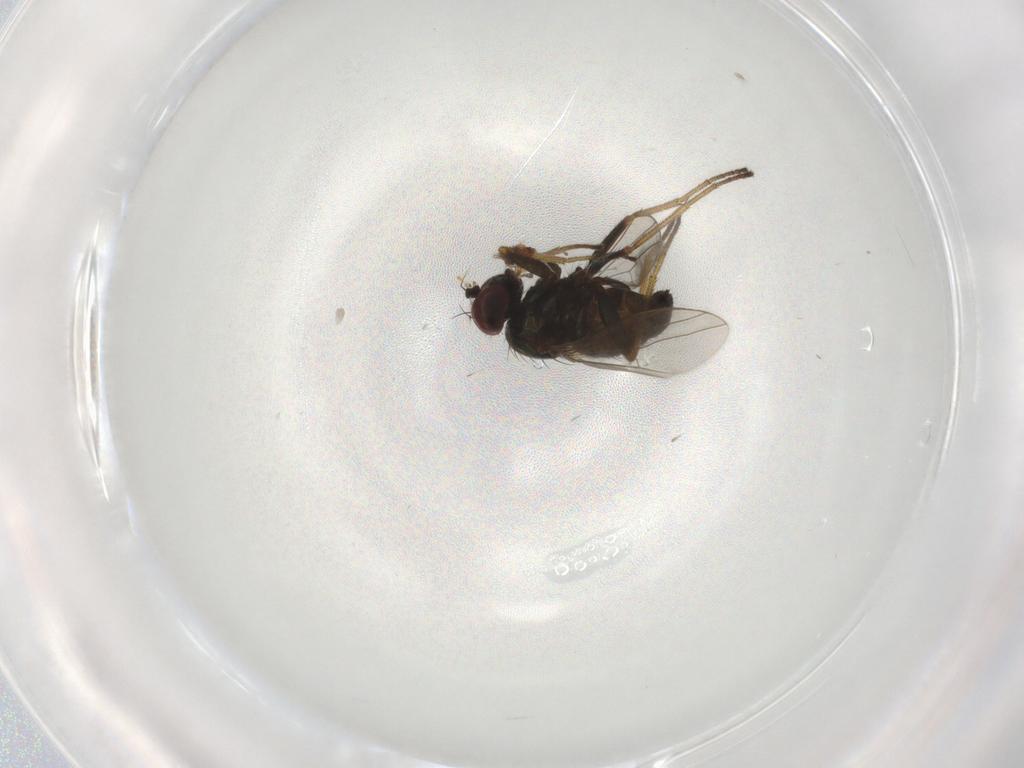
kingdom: Animalia
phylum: Arthropoda
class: Insecta
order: Diptera
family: Dolichopodidae
